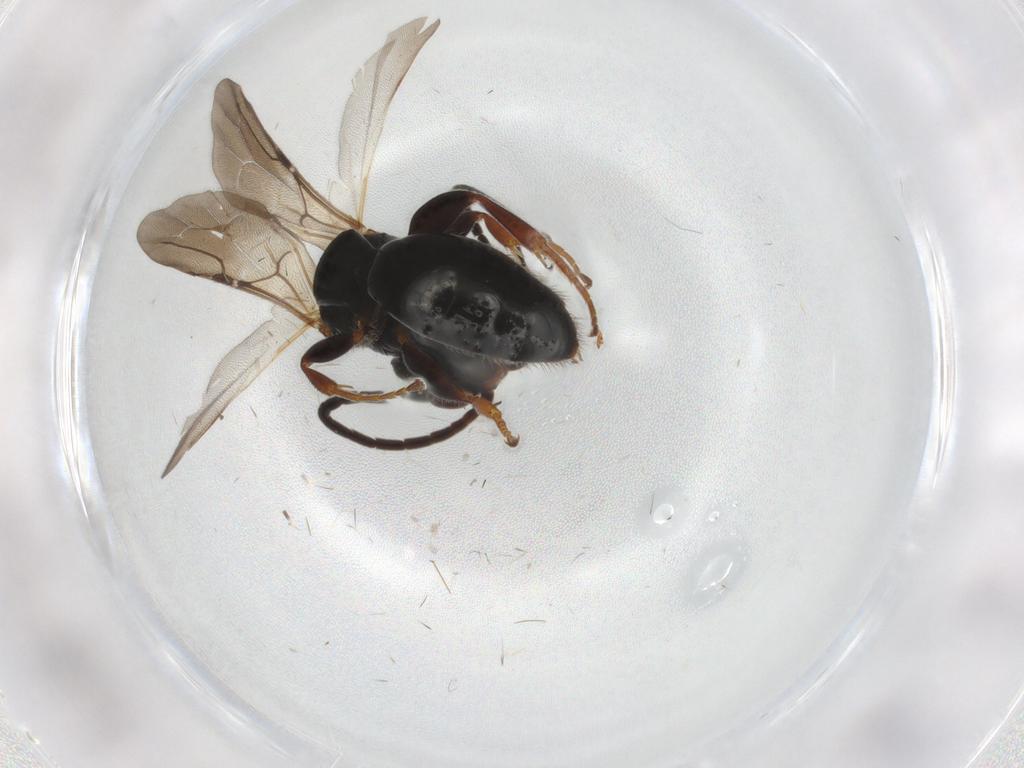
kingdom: Animalia
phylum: Arthropoda
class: Insecta
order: Hymenoptera
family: Bethylidae
